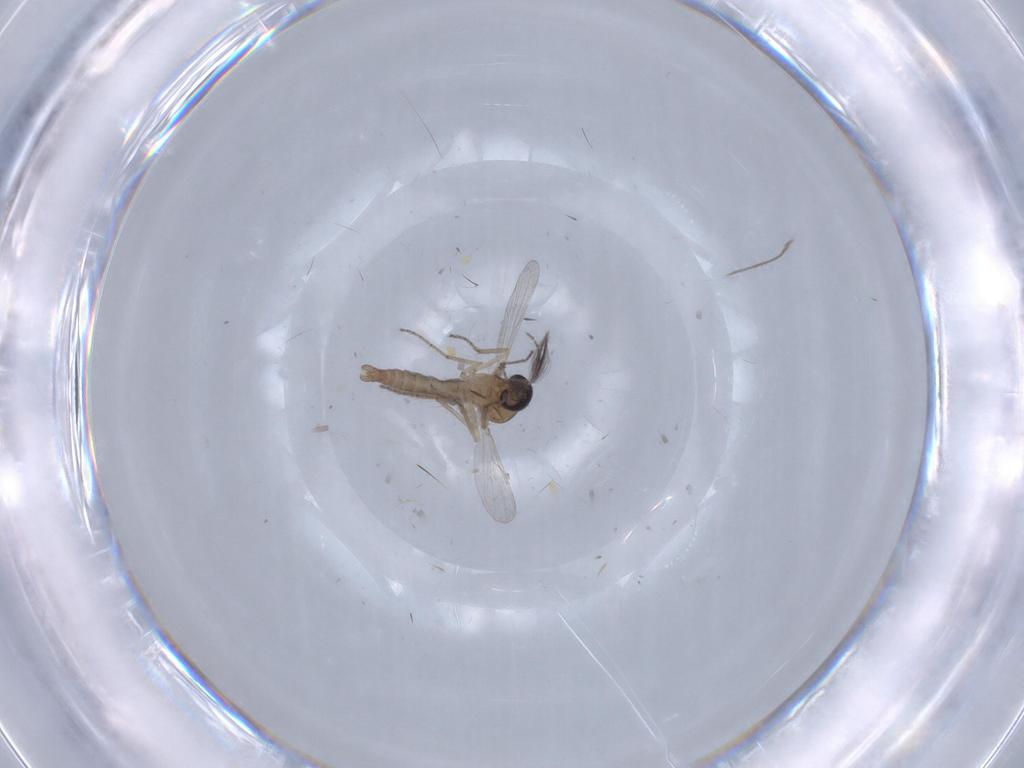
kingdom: Animalia
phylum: Arthropoda
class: Insecta
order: Diptera
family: Ceratopogonidae
